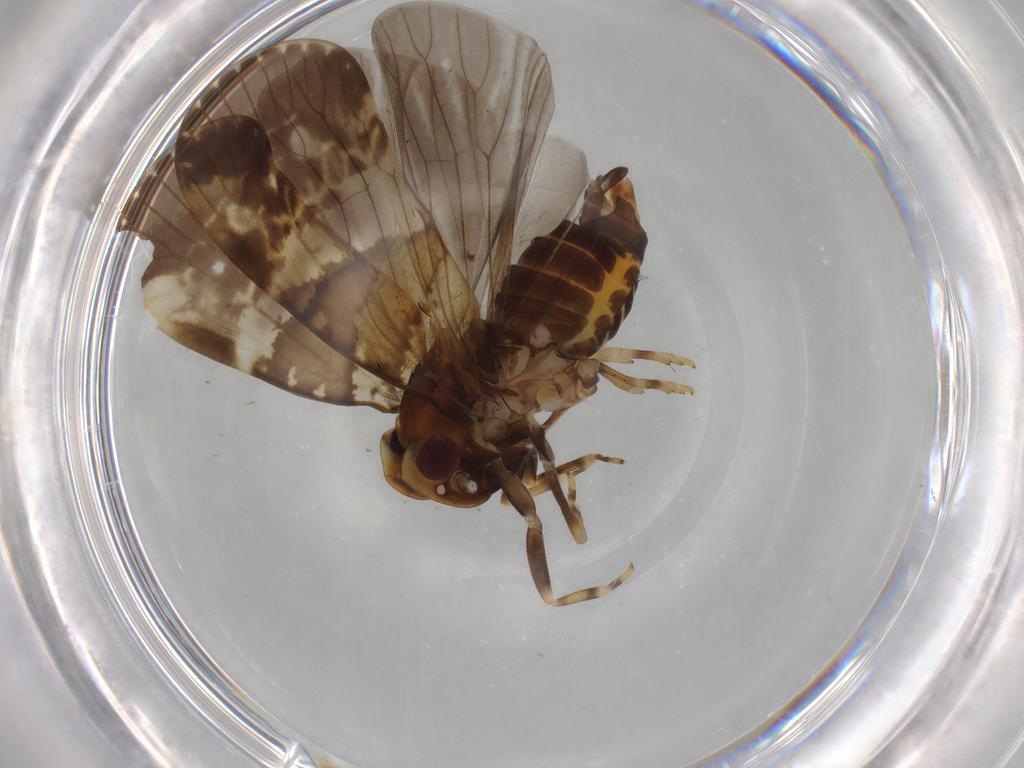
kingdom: Animalia
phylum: Arthropoda
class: Insecta
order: Hemiptera
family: Cixiidae
